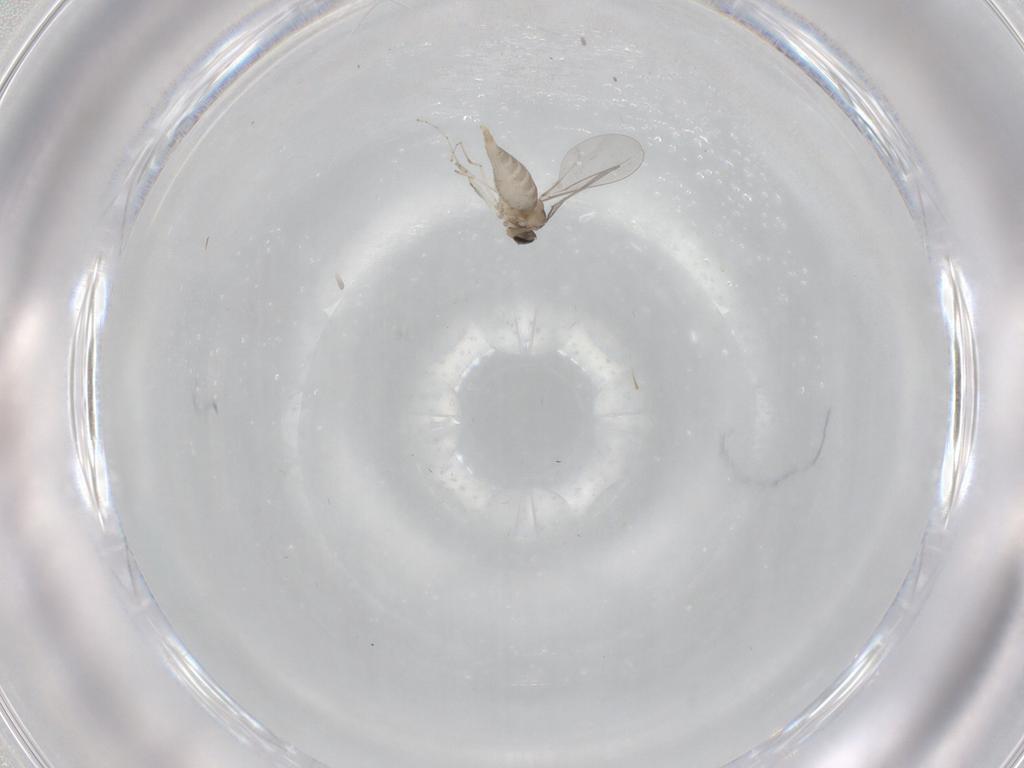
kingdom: Animalia
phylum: Arthropoda
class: Insecta
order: Diptera
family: Cecidomyiidae
